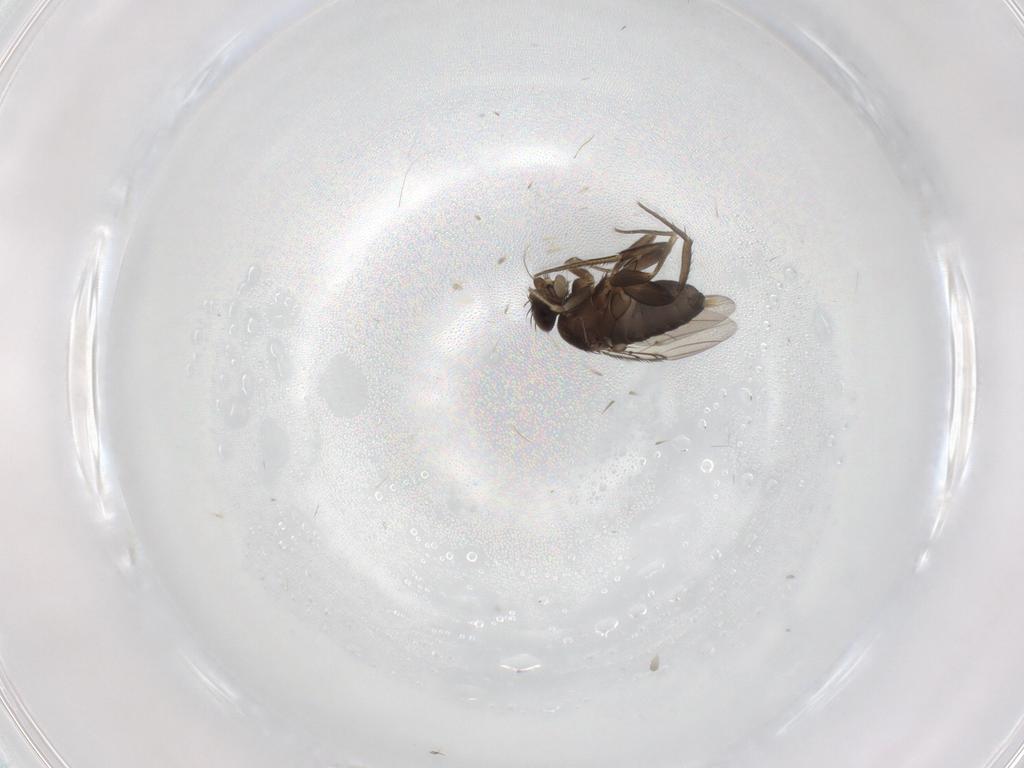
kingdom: Animalia
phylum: Arthropoda
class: Insecta
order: Diptera
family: Phoridae
